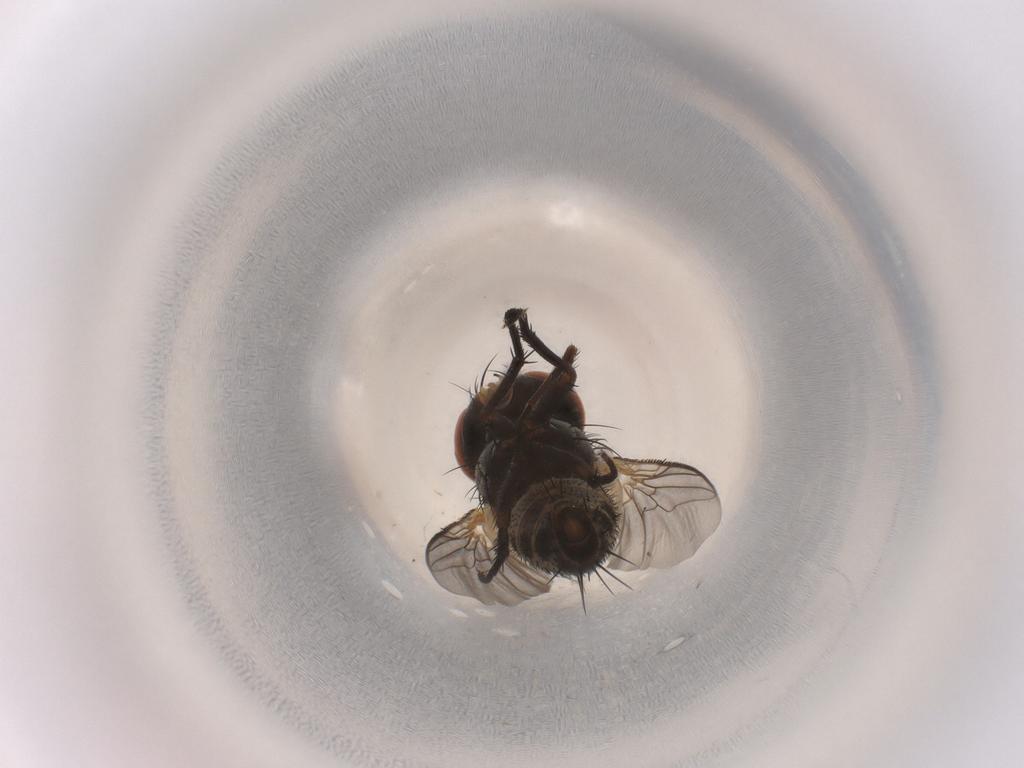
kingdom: Animalia
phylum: Arthropoda
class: Insecta
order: Diptera
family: Sarcophagidae
